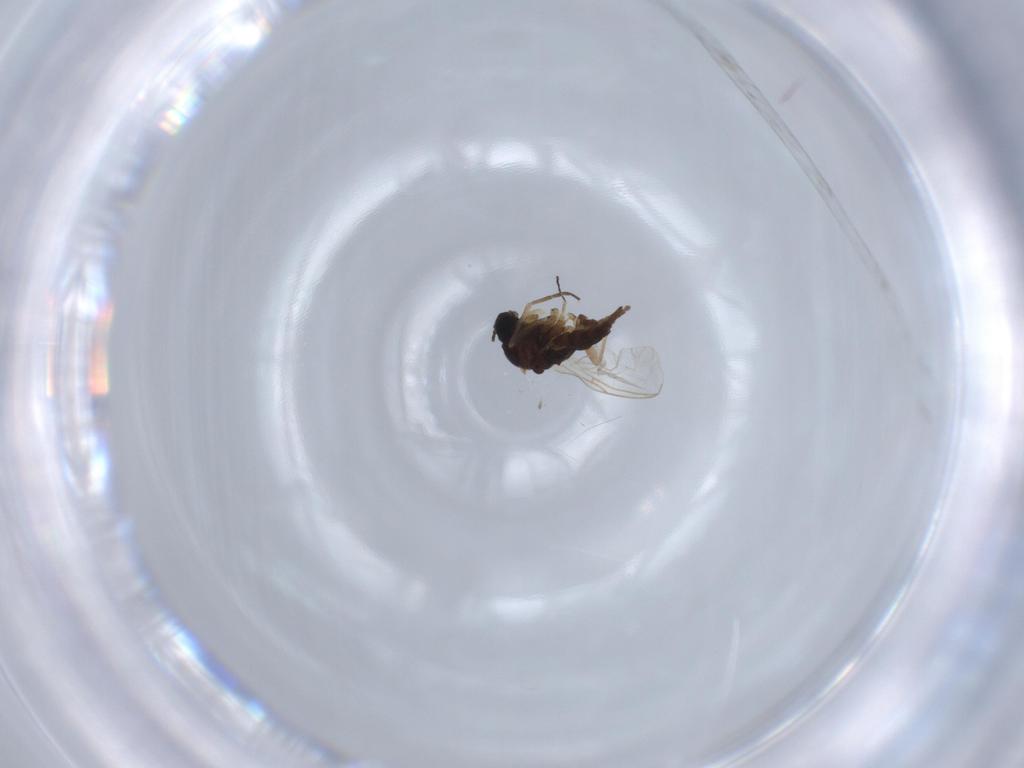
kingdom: Animalia
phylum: Arthropoda
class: Insecta
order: Diptera
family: Sciaridae
